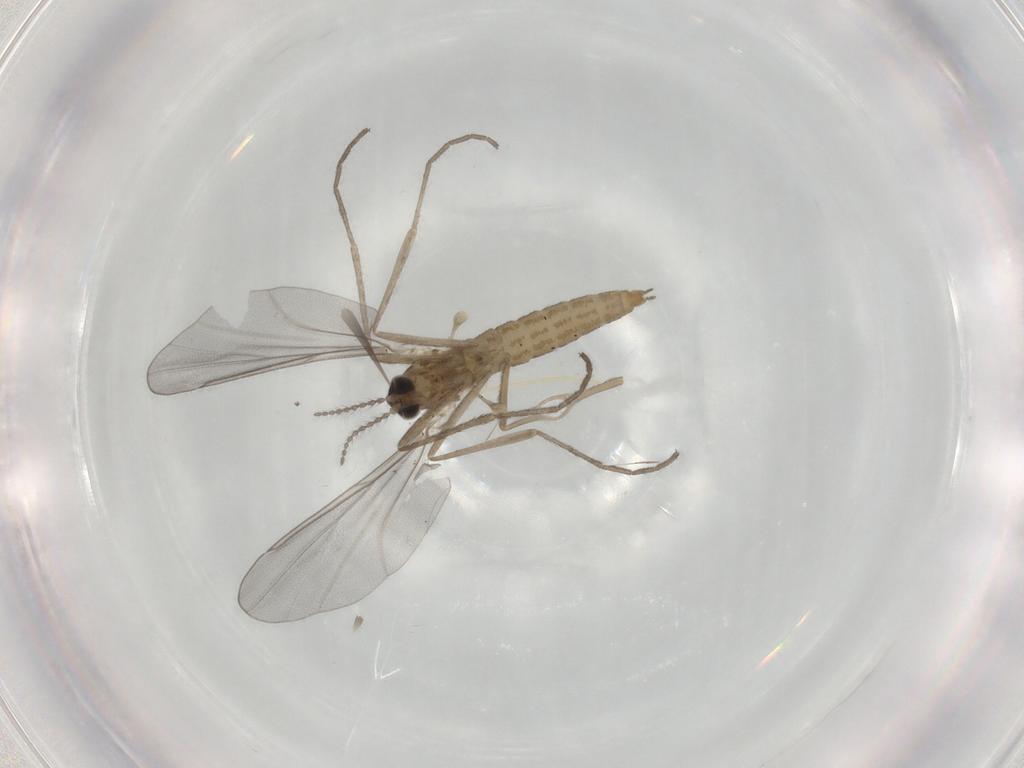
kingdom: Animalia
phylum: Arthropoda
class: Insecta
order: Diptera
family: Cecidomyiidae
